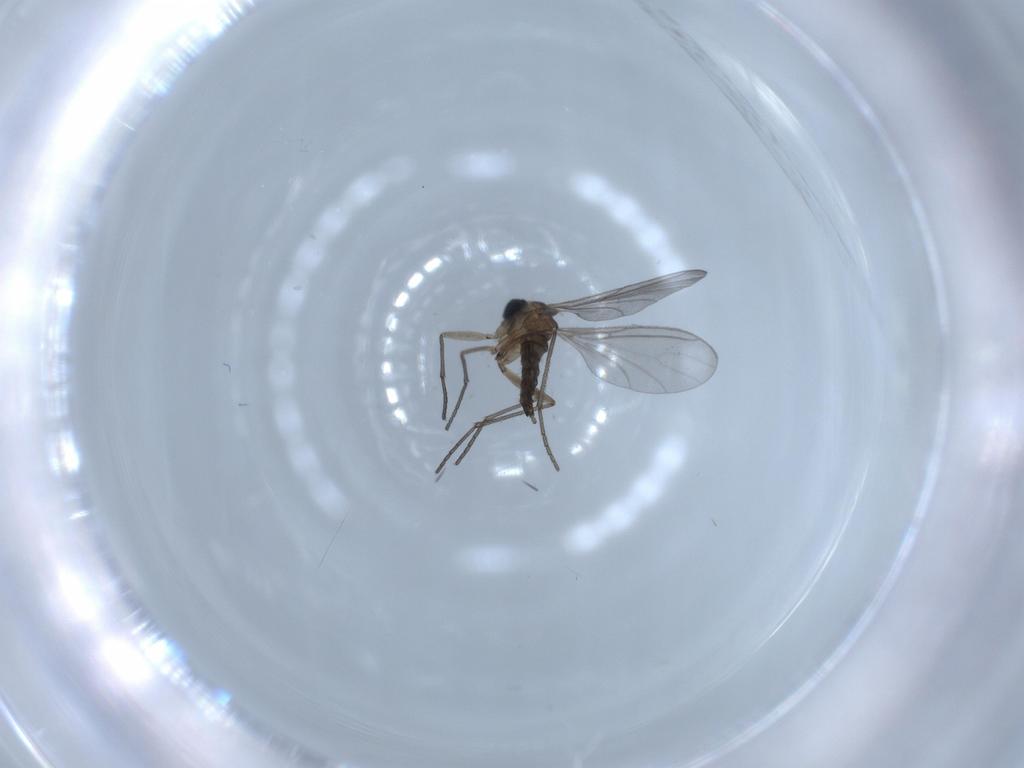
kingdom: Animalia
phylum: Arthropoda
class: Insecta
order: Diptera
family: Sciaridae
